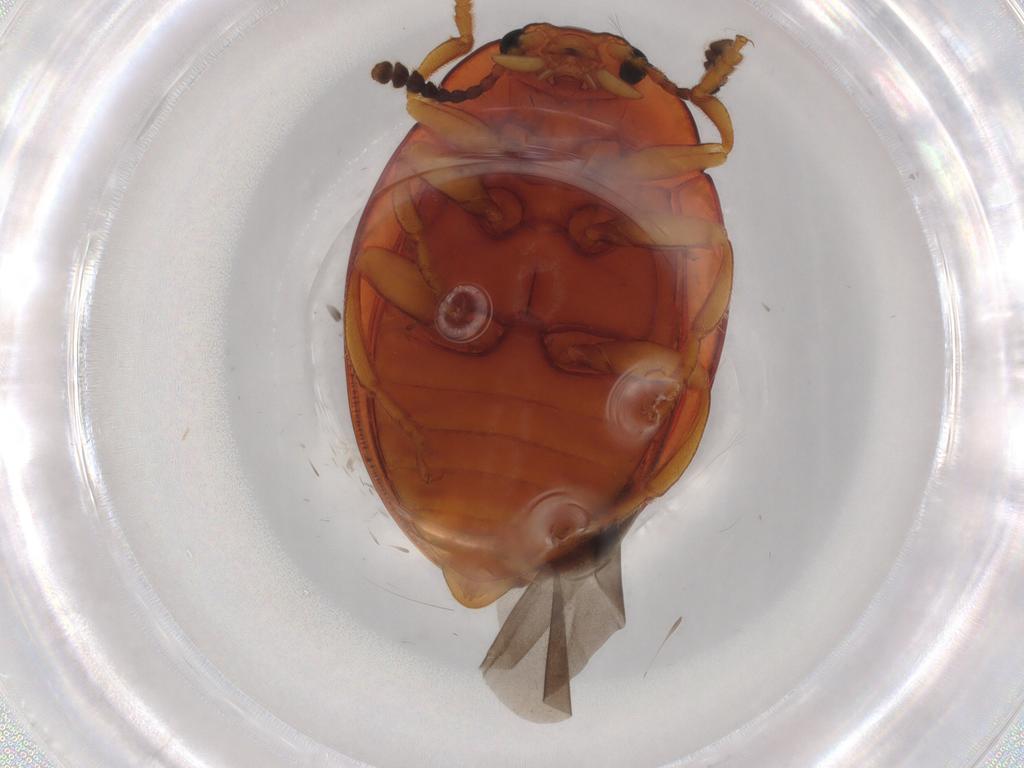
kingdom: Animalia
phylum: Arthropoda
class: Insecta
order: Coleoptera
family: Erotylidae
